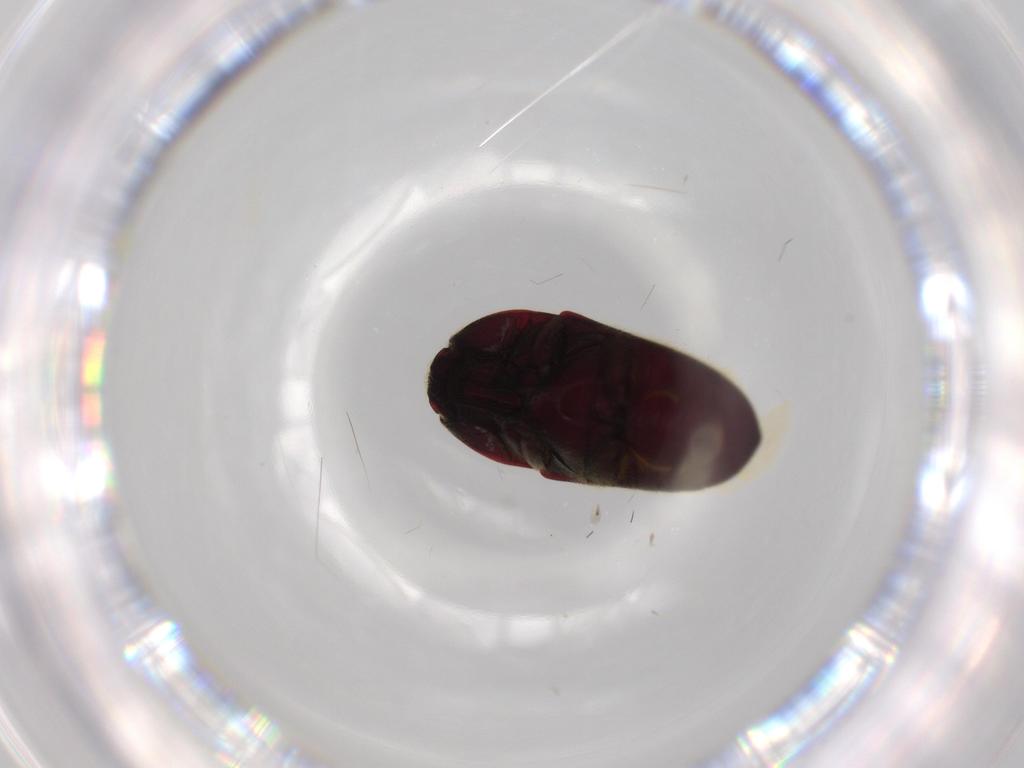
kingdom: Animalia
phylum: Arthropoda
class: Insecta
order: Coleoptera
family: Throscidae
